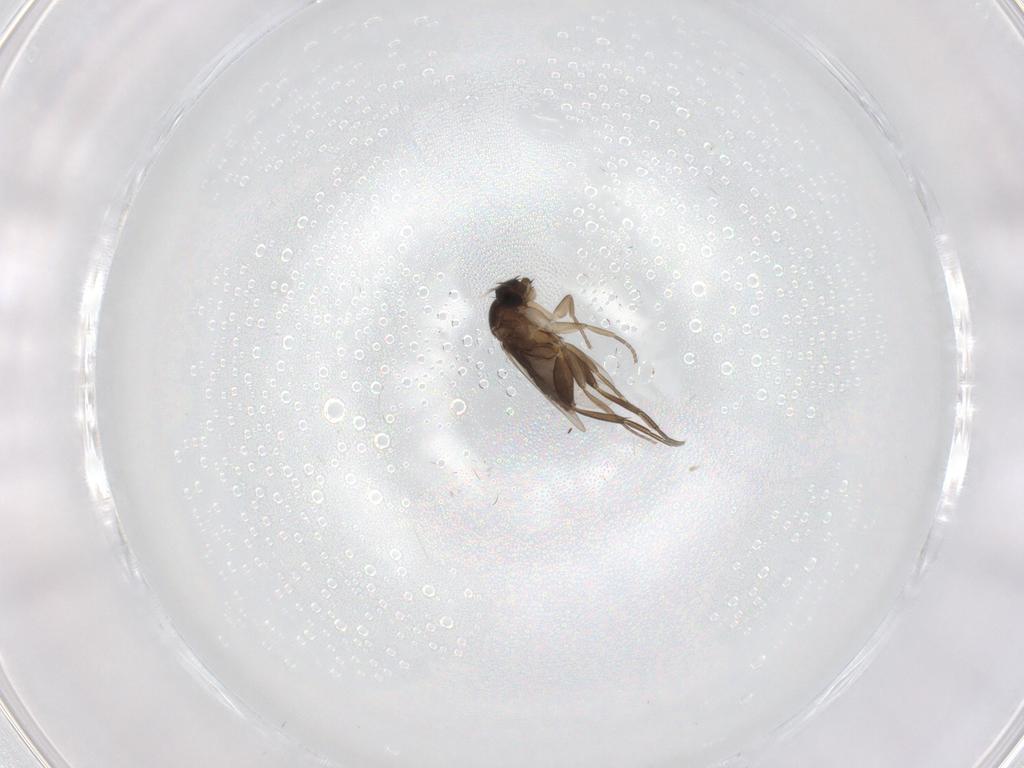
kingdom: Animalia
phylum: Arthropoda
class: Insecta
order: Diptera
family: Phoridae
